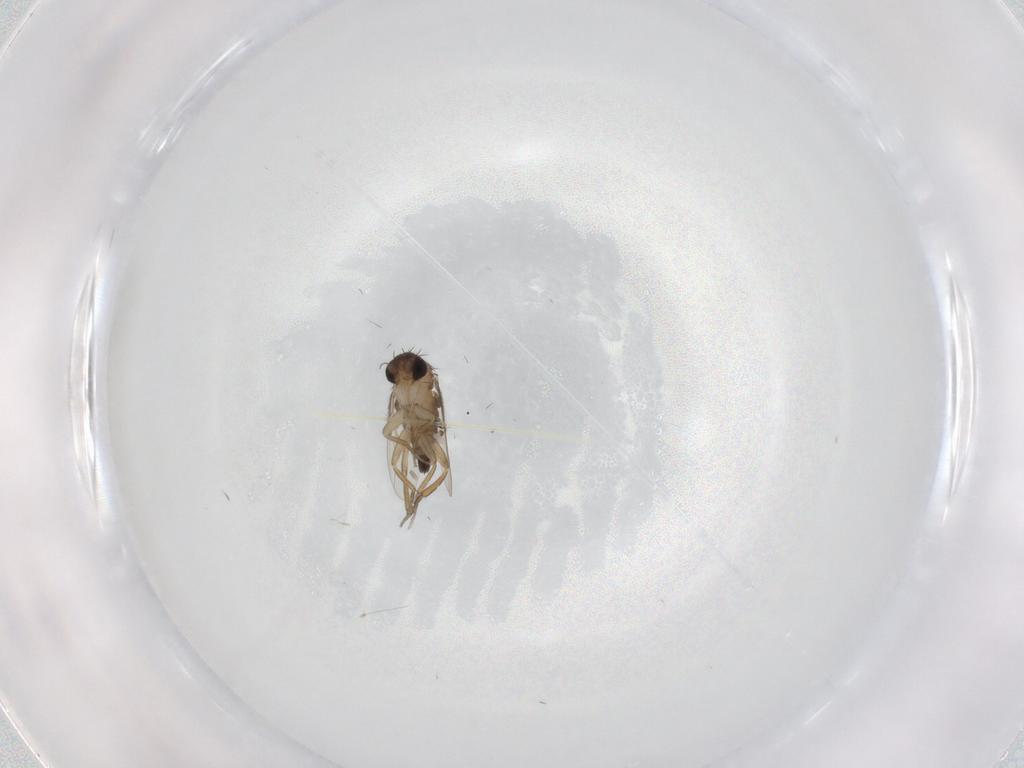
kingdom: Animalia
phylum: Arthropoda
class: Insecta
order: Diptera
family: Phoridae
